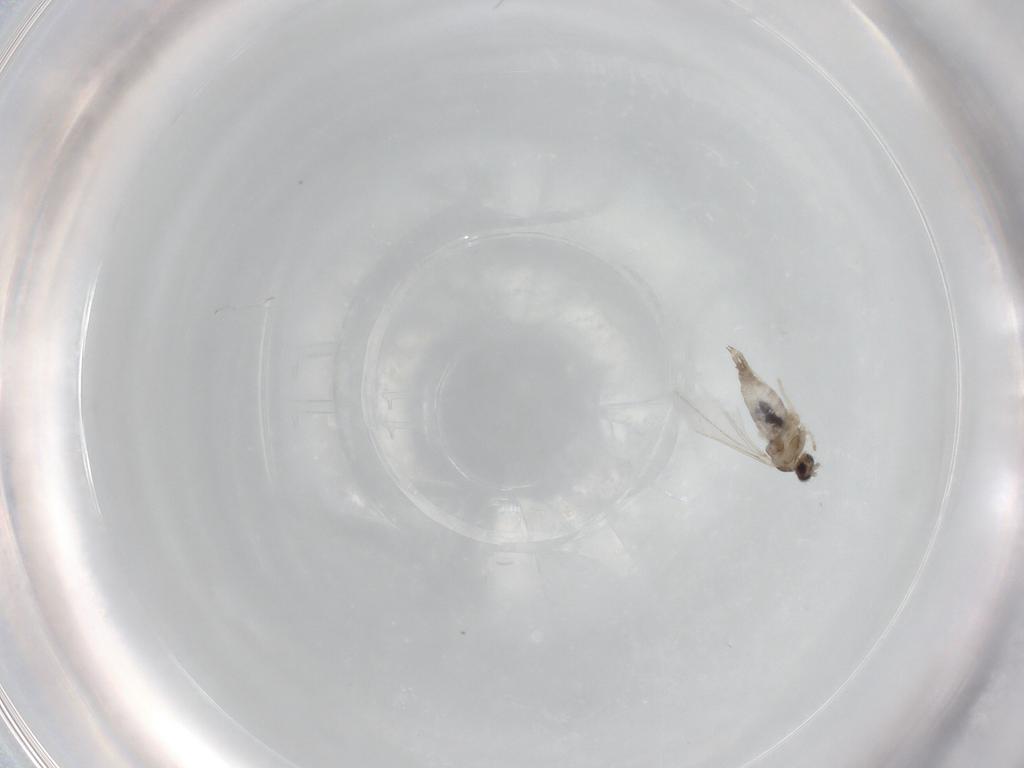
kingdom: Animalia
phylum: Arthropoda
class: Insecta
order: Diptera
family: Cecidomyiidae
